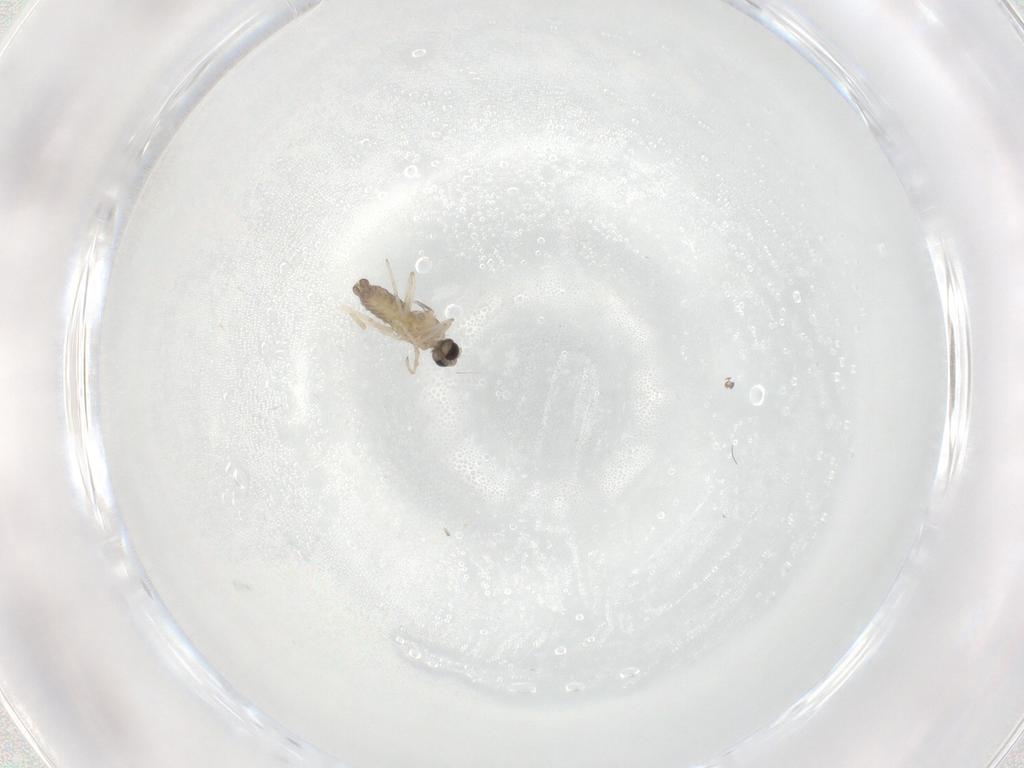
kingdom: Animalia
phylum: Arthropoda
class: Insecta
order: Diptera
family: Cecidomyiidae
